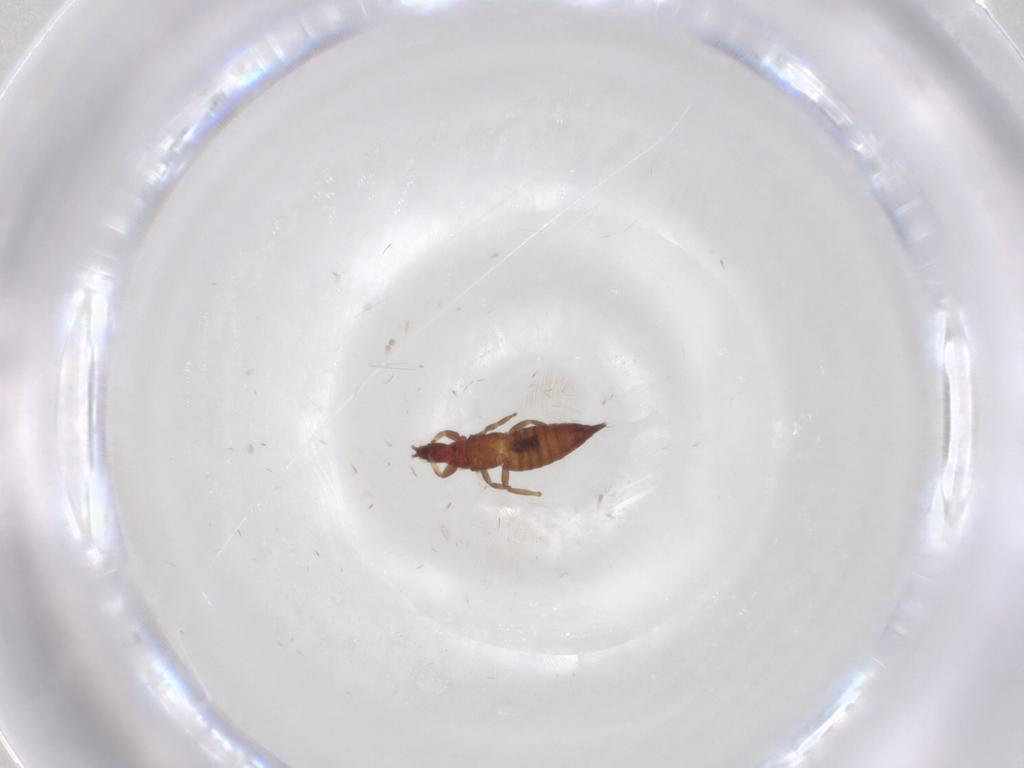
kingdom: Animalia
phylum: Arthropoda
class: Insecta
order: Thysanoptera
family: Phlaeothripidae
